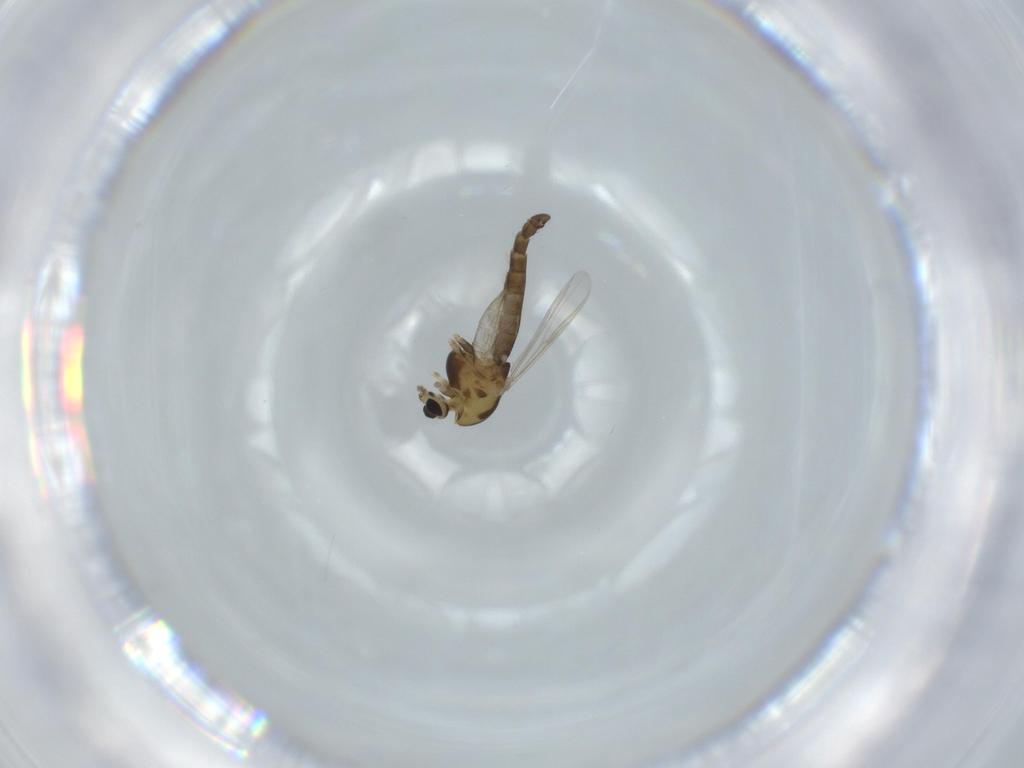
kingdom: Animalia
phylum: Arthropoda
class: Insecta
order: Diptera
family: Chironomidae
